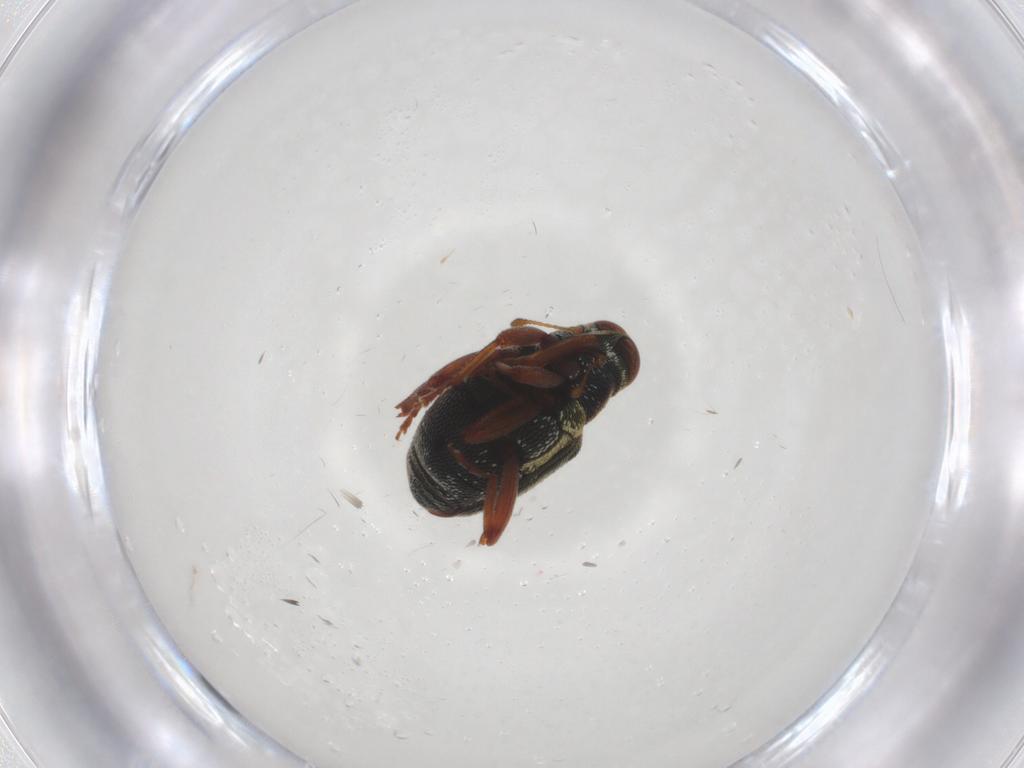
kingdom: Animalia
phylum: Arthropoda
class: Insecta
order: Coleoptera
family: Curculionidae
